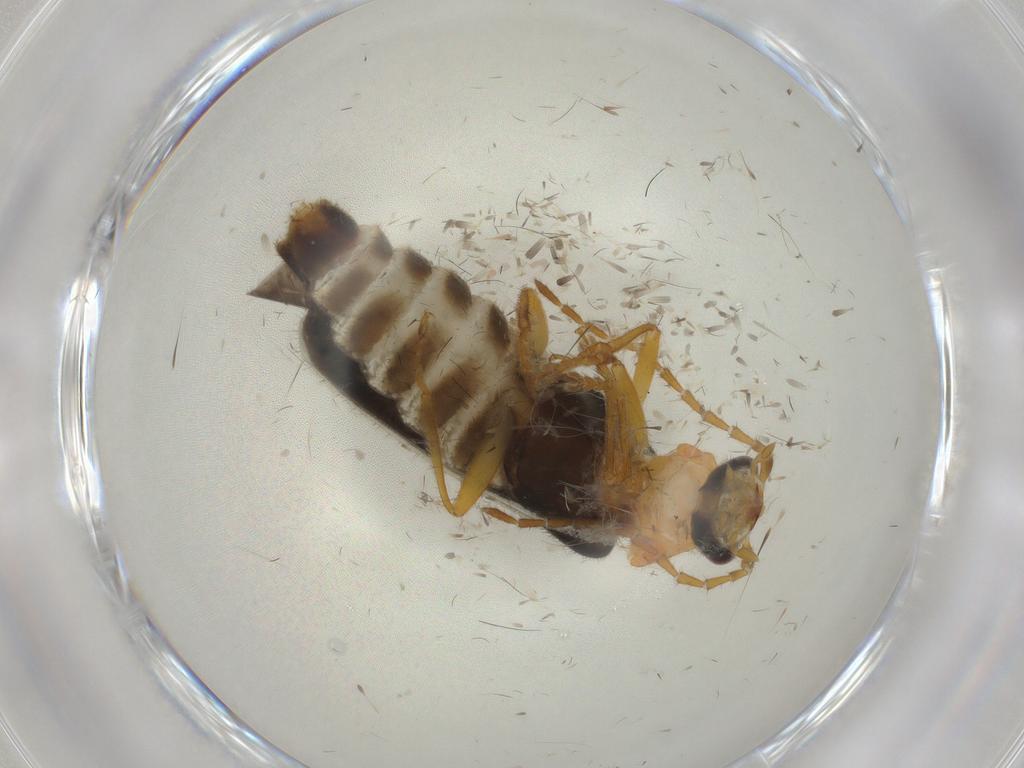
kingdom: Animalia
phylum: Arthropoda
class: Insecta
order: Coleoptera
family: Cantharidae
